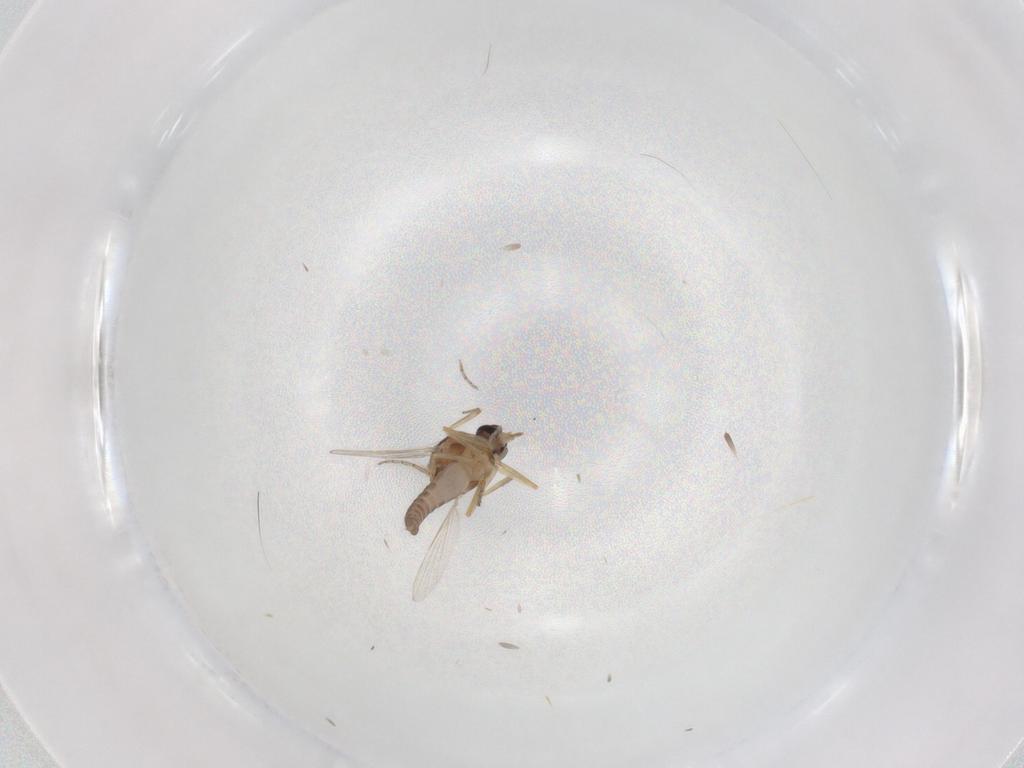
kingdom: Animalia
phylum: Arthropoda
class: Insecta
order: Diptera
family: Ceratopogonidae
